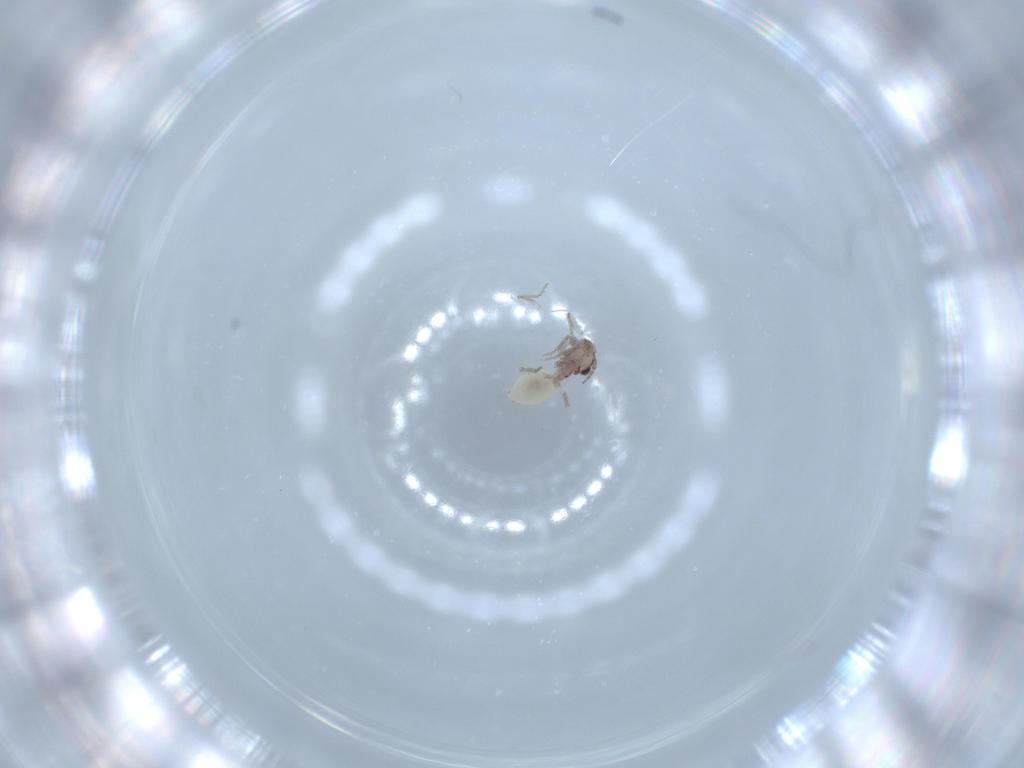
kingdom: Animalia
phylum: Arthropoda
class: Insecta
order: Psocodea
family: Lepidopsocidae
